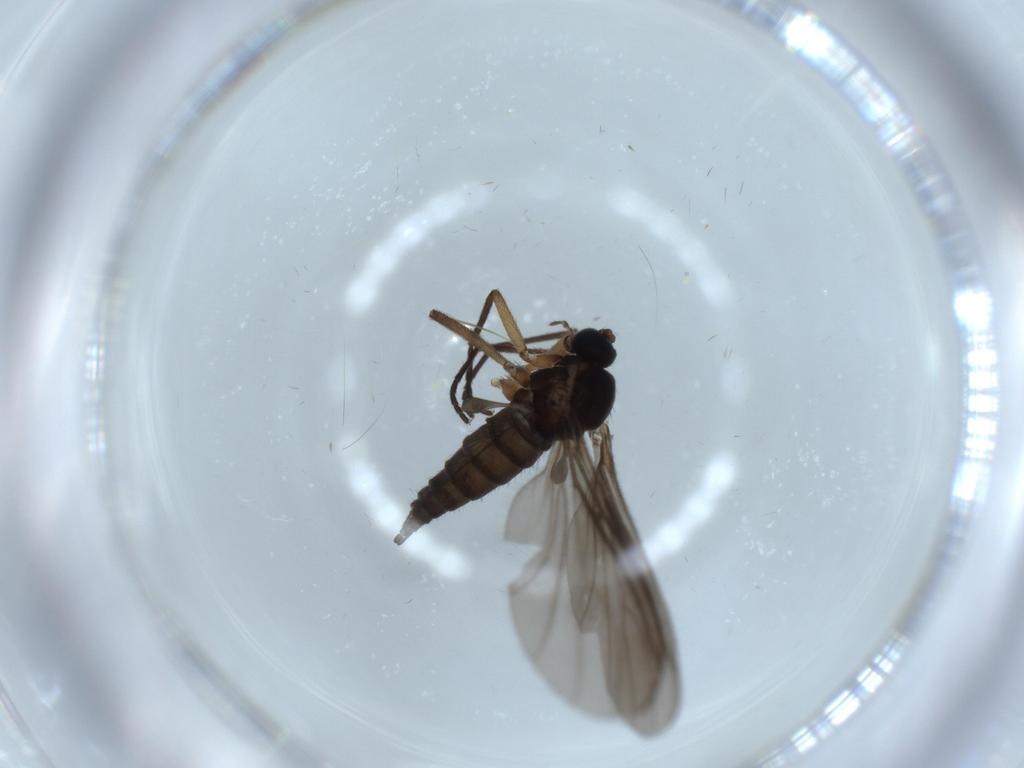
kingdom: Animalia
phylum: Arthropoda
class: Insecta
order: Diptera
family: Sciaridae
